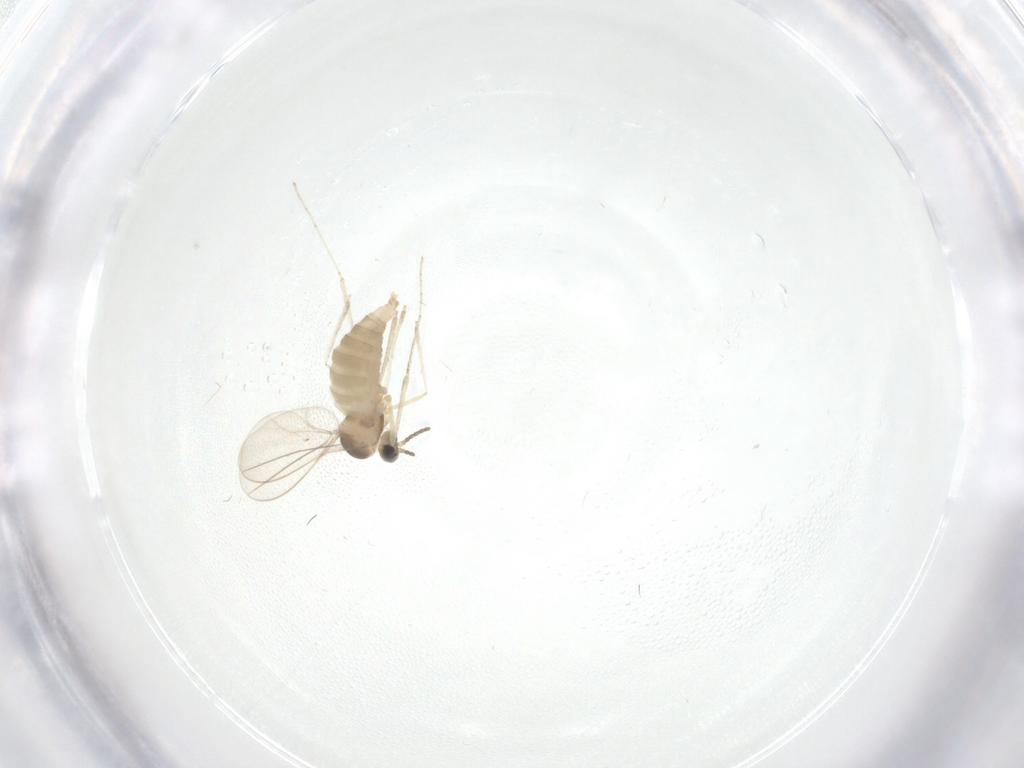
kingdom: Animalia
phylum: Arthropoda
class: Insecta
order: Diptera
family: Cecidomyiidae
